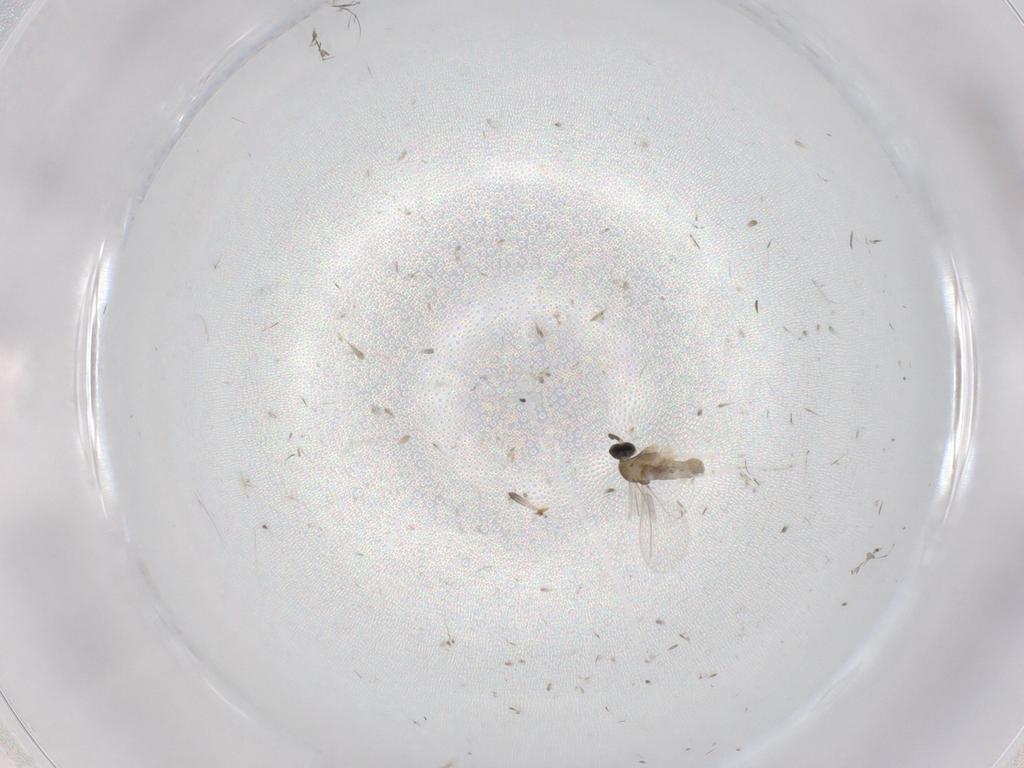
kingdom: Animalia
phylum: Arthropoda
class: Insecta
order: Diptera
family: Cecidomyiidae
